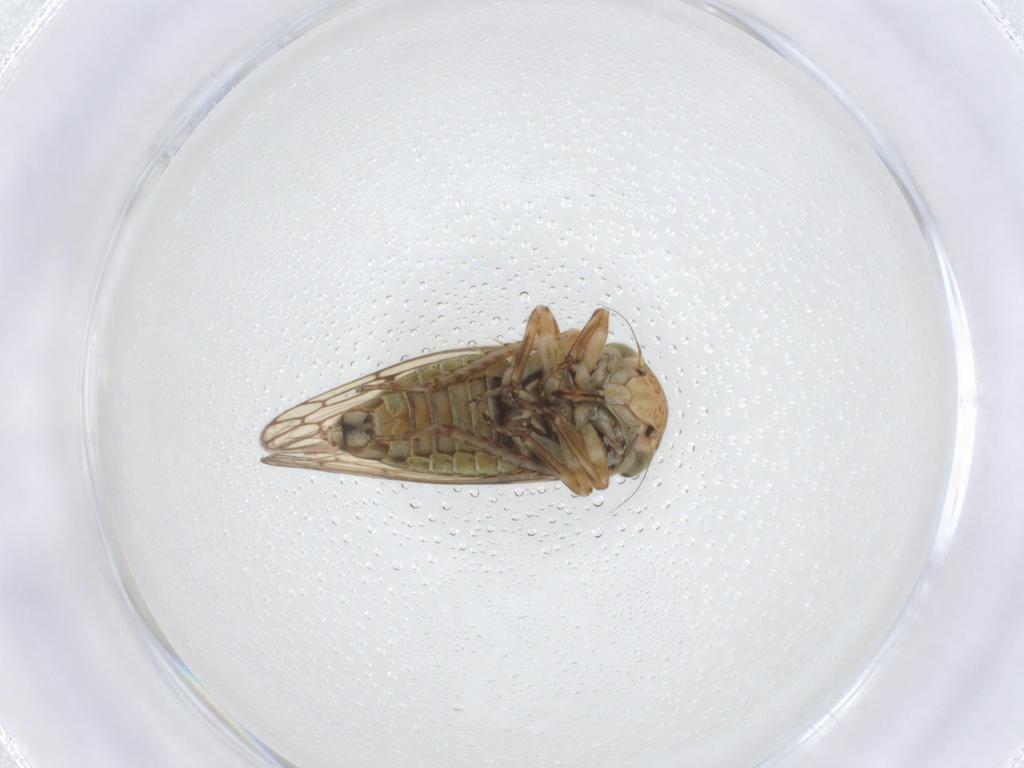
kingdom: Animalia
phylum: Arthropoda
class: Insecta
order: Hemiptera
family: Cicadellidae
